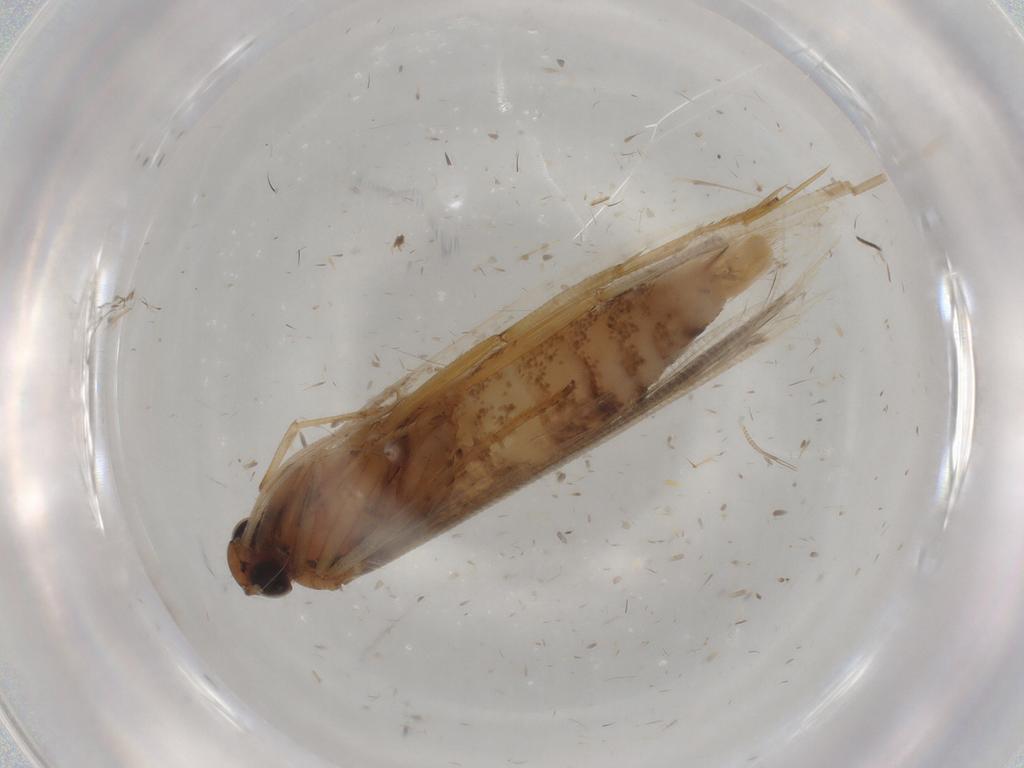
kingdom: Animalia
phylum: Arthropoda
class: Insecta
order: Lepidoptera
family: Gelechiidae
